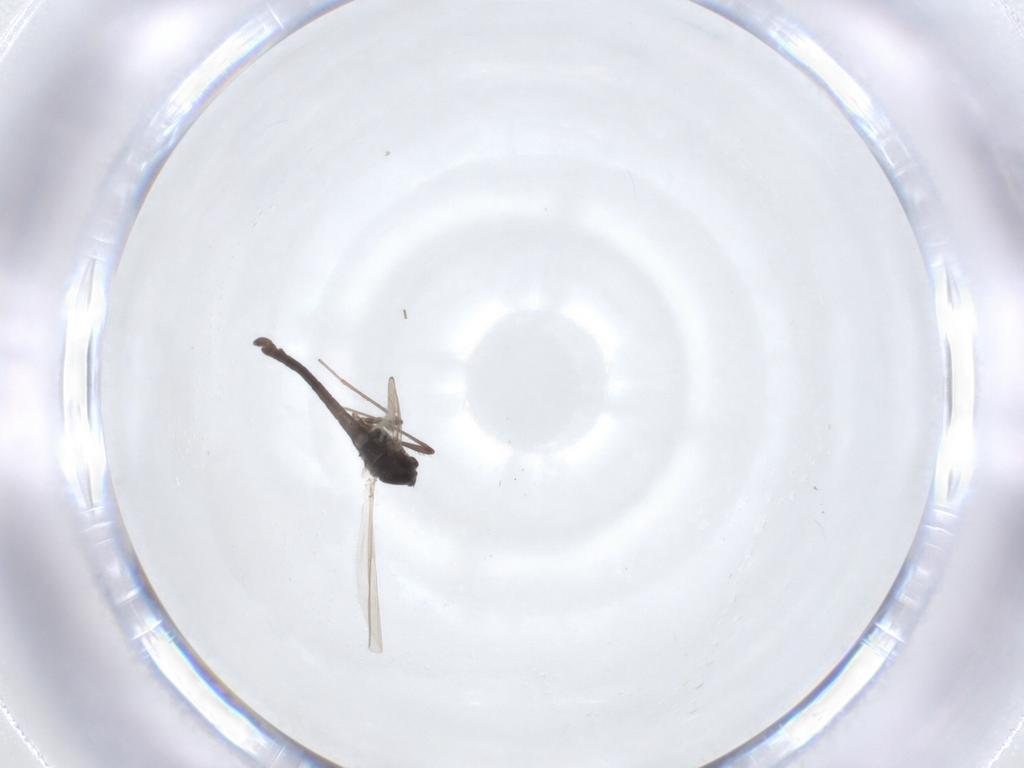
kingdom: Animalia
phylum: Arthropoda
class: Insecta
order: Diptera
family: Chironomidae
